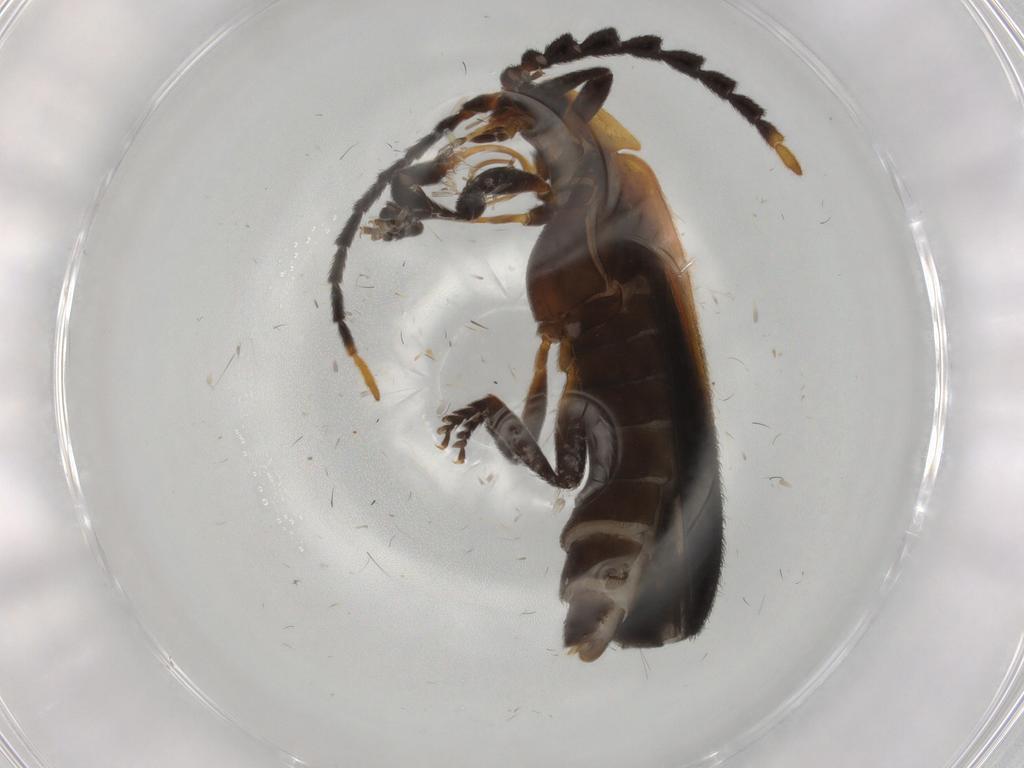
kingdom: Animalia
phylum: Arthropoda
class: Insecta
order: Coleoptera
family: Lycidae
